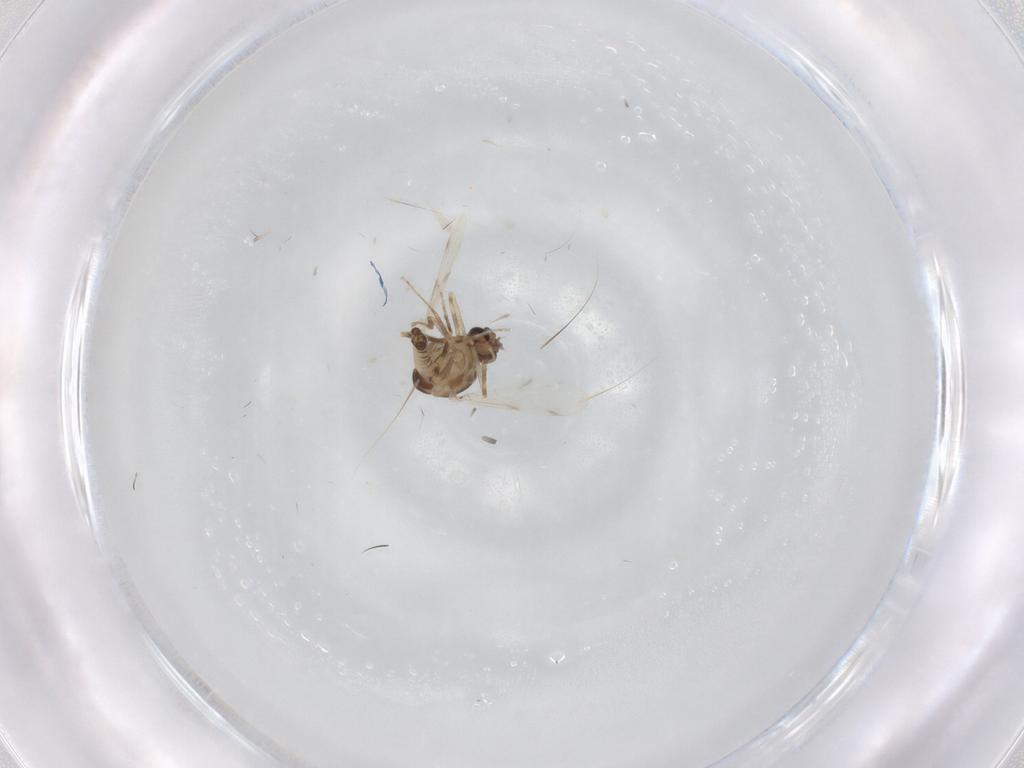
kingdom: Animalia
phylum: Arthropoda
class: Insecta
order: Diptera
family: Ceratopogonidae
